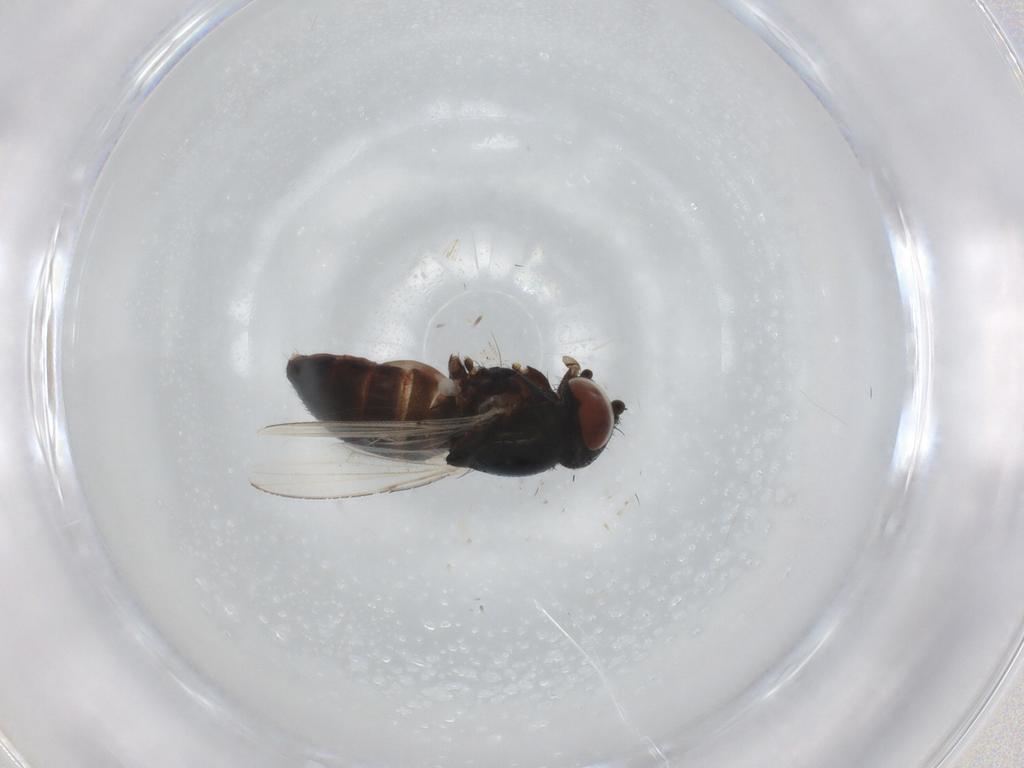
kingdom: Animalia
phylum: Arthropoda
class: Insecta
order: Diptera
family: Milichiidae
